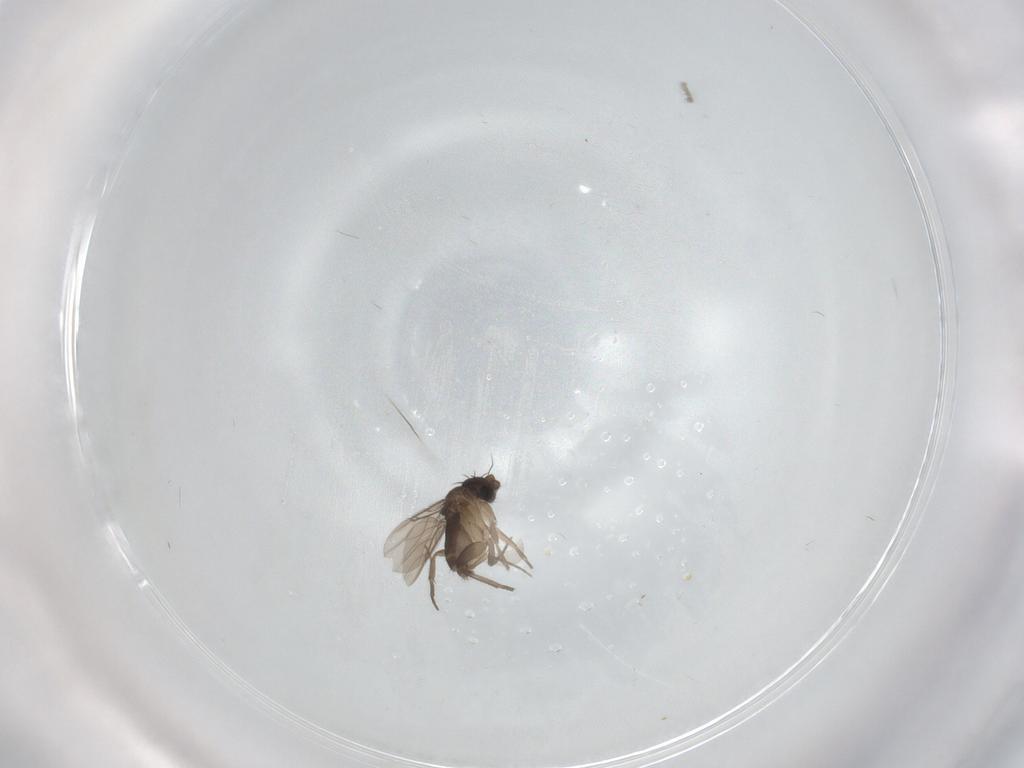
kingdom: Animalia
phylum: Arthropoda
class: Insecta
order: Diptera
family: Phoridae
